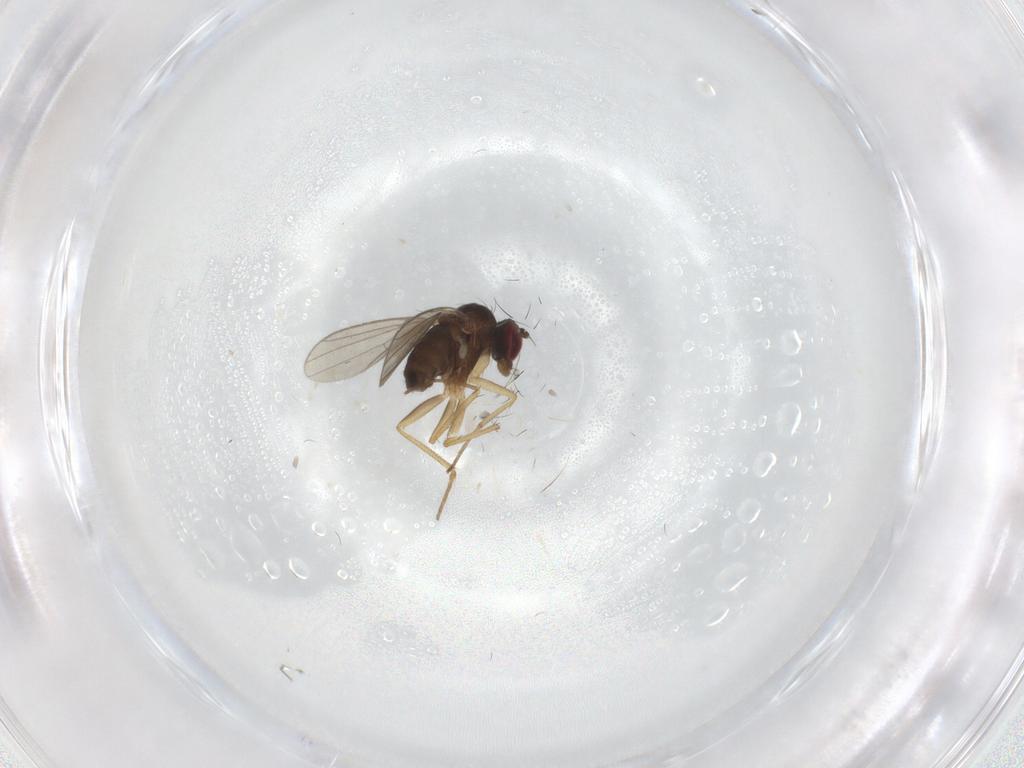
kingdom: Animalia
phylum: Arthropoda
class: Insecta
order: Diptera
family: Dolichopodidae
